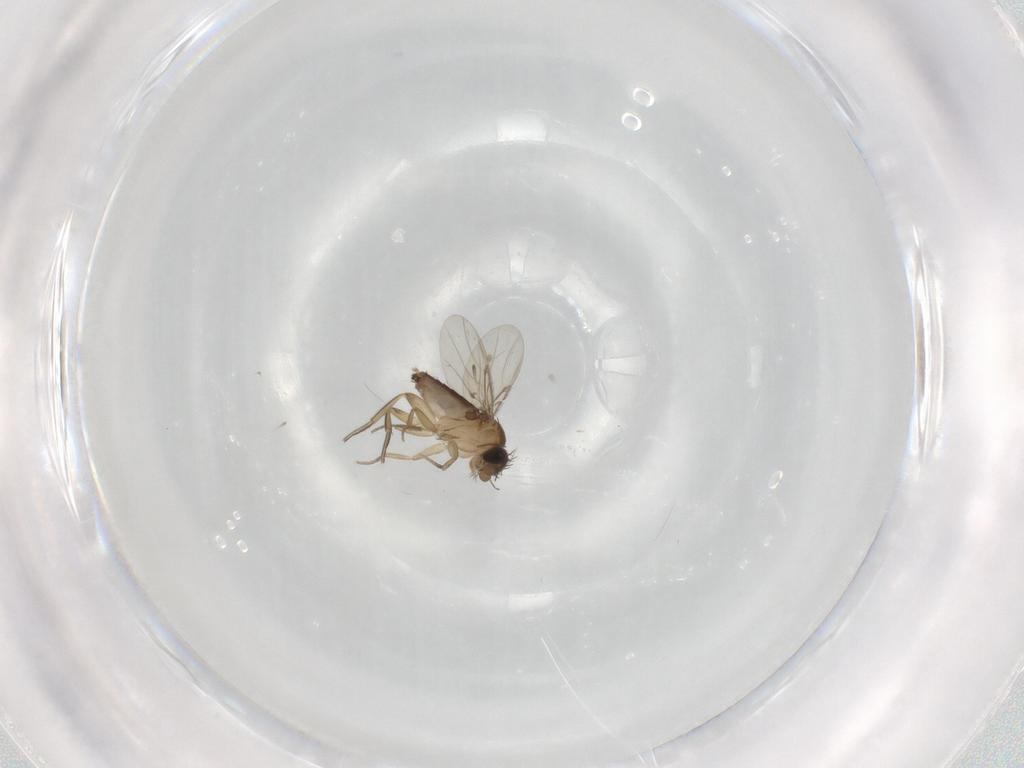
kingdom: Animalia
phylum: Arthropoda
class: Insecta
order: Diptera
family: Phoridae
